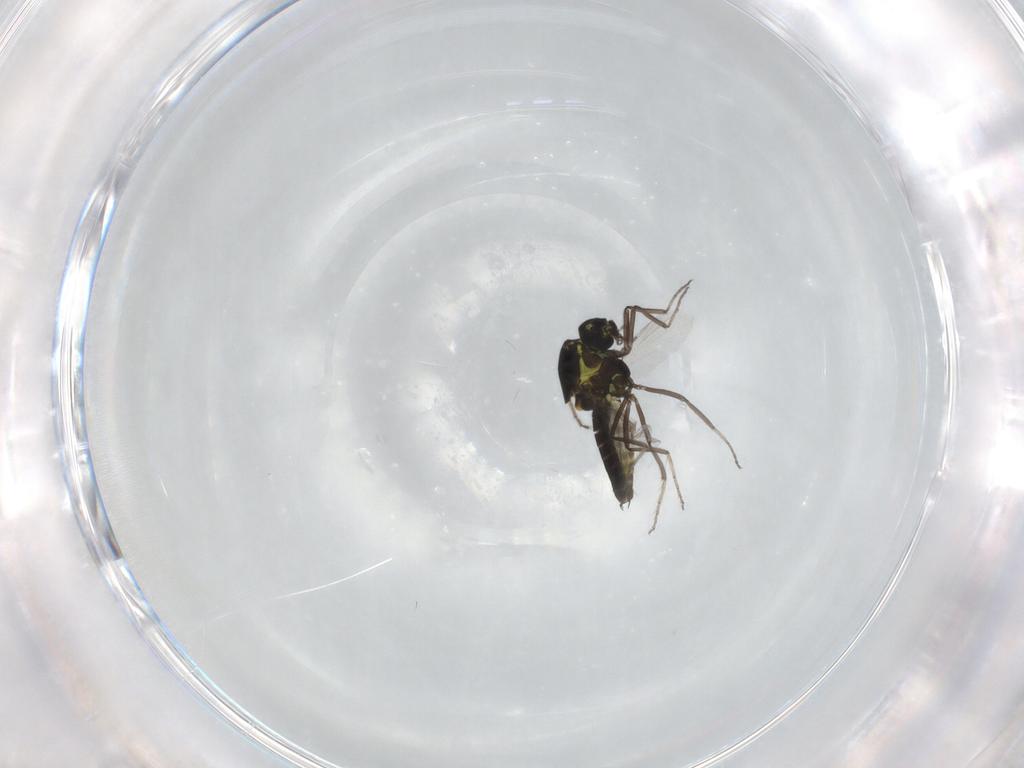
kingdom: Animalia
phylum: Arthropoda
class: Insecta
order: Diptera
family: Ceratopogonidae
